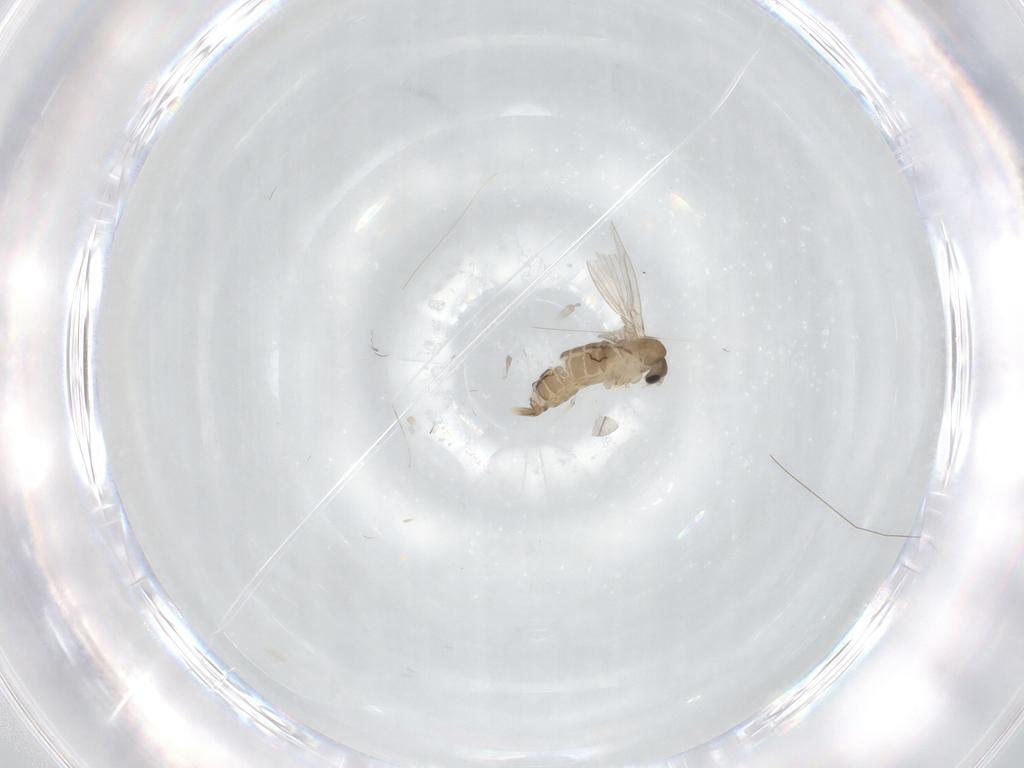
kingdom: Animalia
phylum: Arthropoda
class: Insecta
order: Diptera
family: Psychodidae
